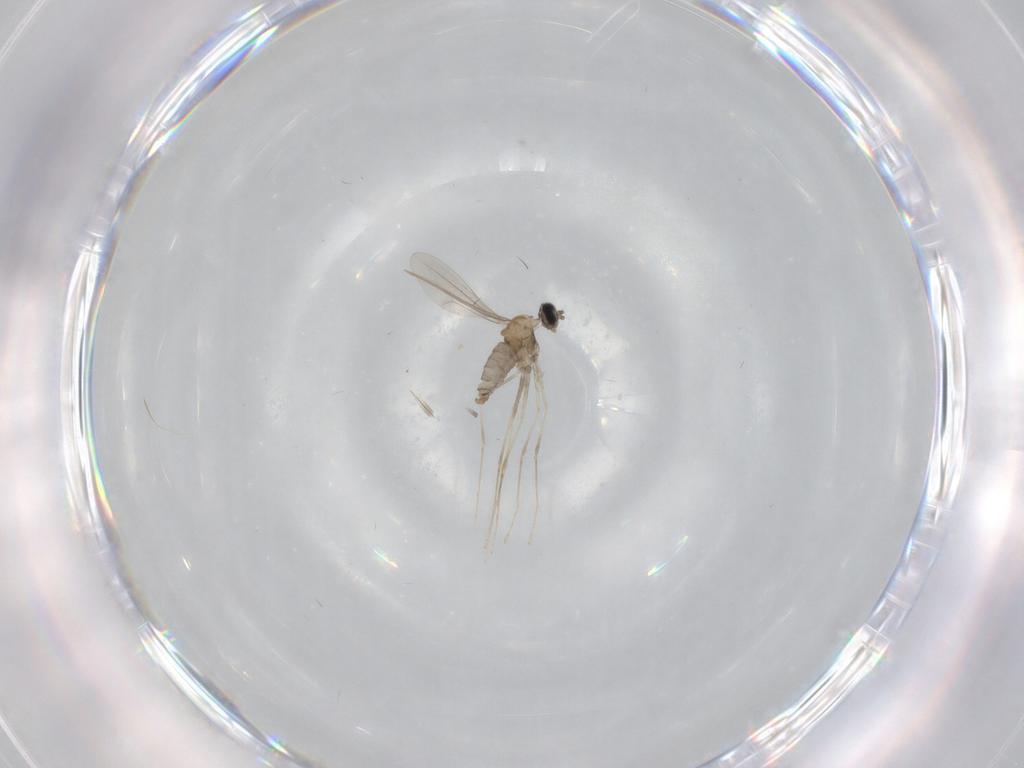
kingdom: Animalia
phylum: Arthropoda
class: Insecta
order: Diptera
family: Cecidomyiidae
